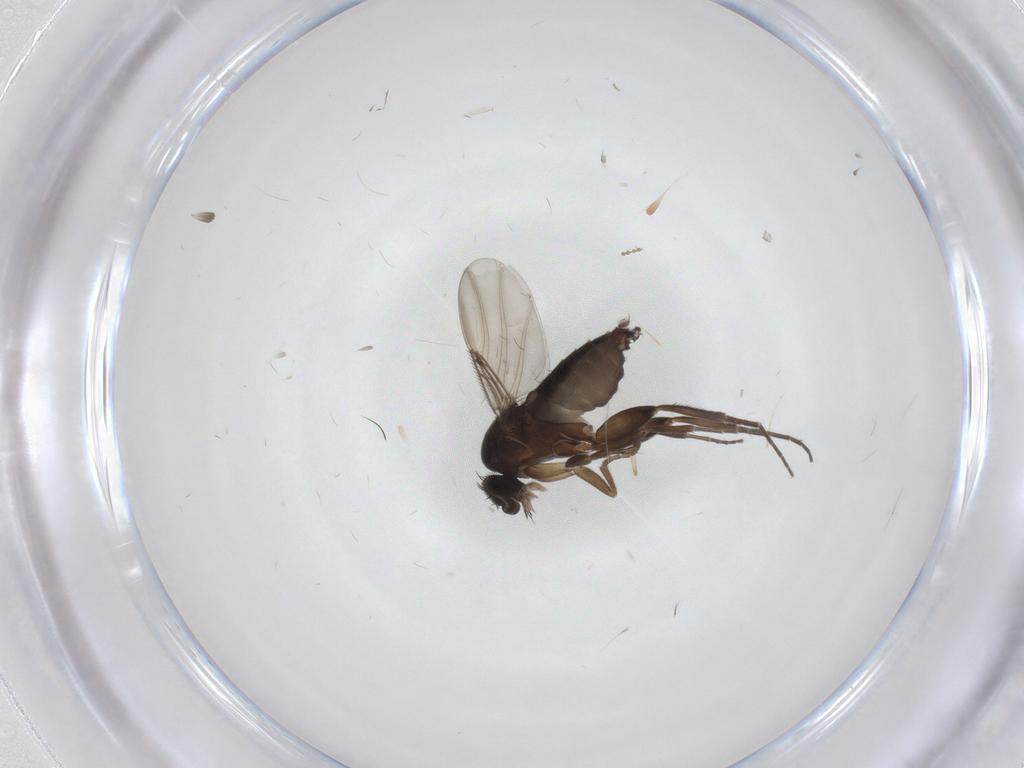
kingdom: Animalia
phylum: Arthropoda
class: Insecta
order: Diptera
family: Phoridae
